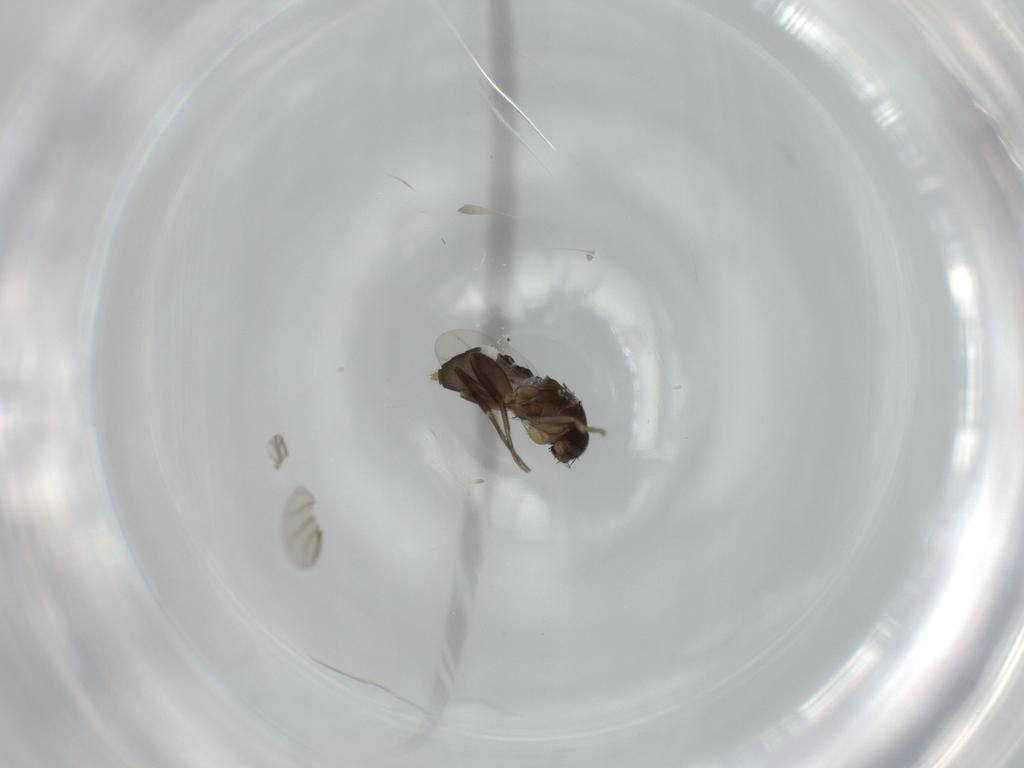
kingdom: Animalia
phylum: Arthropoda
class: Insecta
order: Diptera
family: Phoridae
